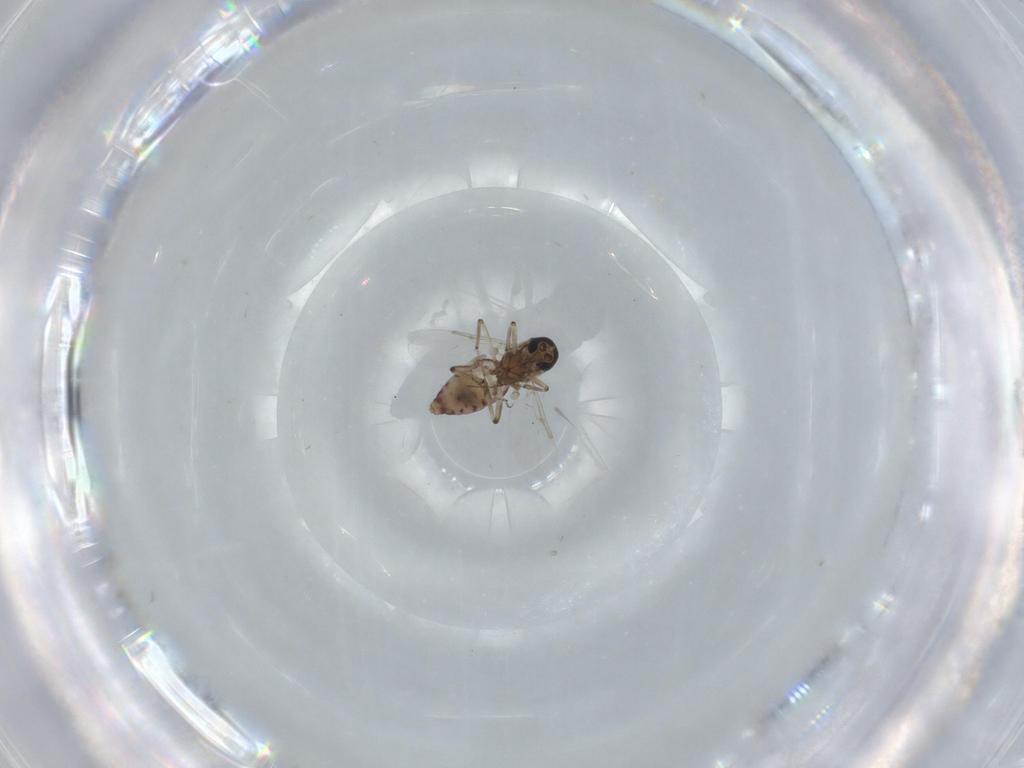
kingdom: Animalia
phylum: Arthropoda
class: Insecta
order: Diptera
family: Ceratopogonidae
